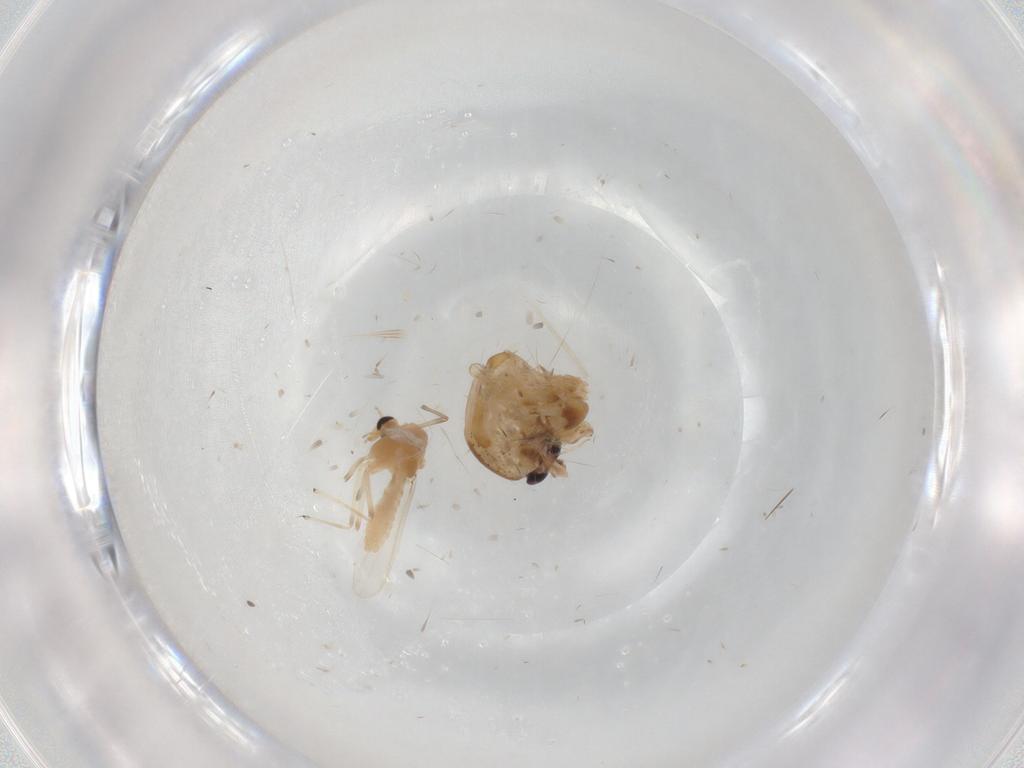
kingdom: Animalia
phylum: Arthropoda
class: Insecta
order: Diptera
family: Chaoboridae
